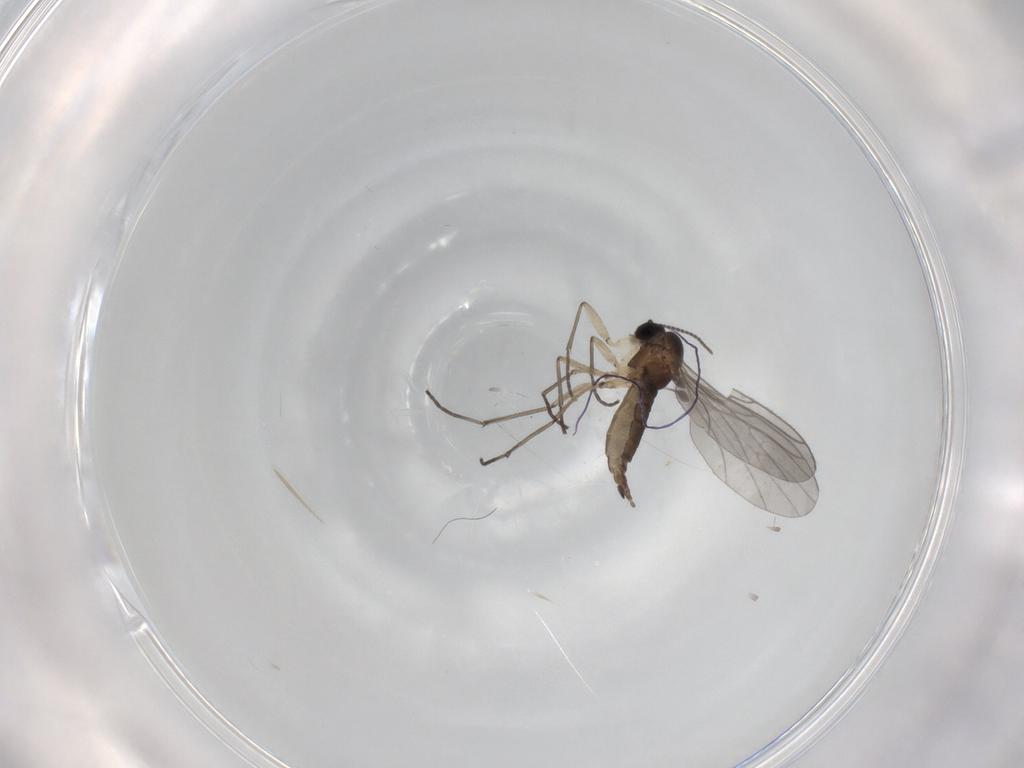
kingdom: Animalia
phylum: Arthropoda
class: Insecta
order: Diptera
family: Sciaridae
